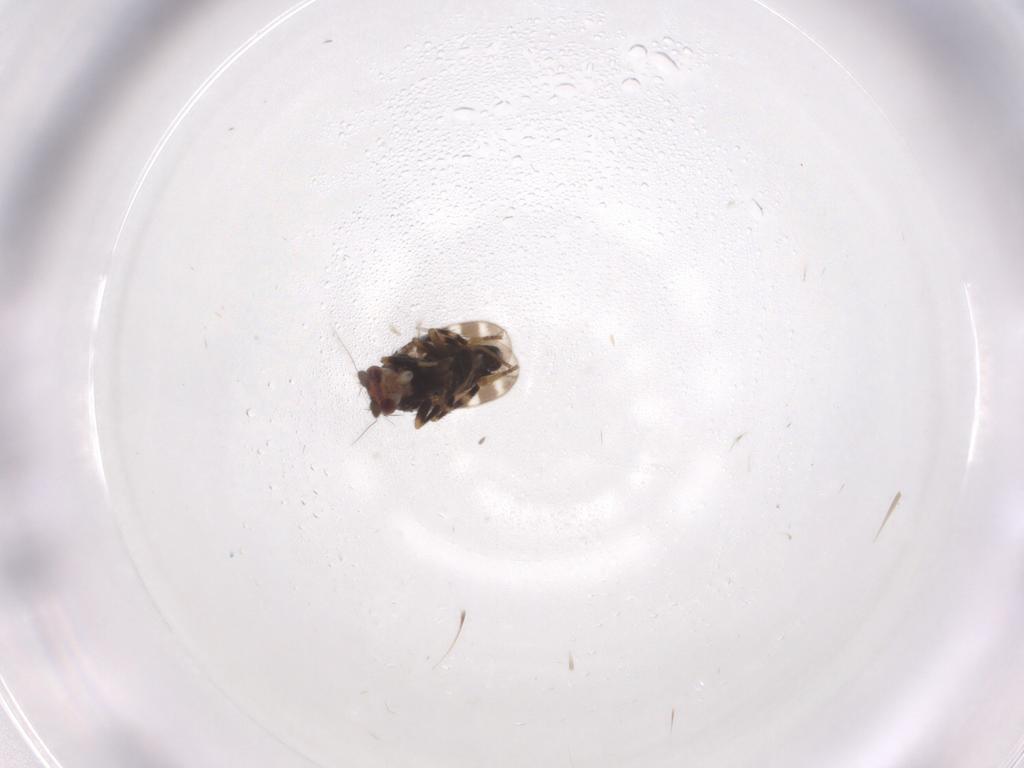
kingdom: Animalia
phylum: Arthropoda
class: Insecta
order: Diptera
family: Sphaeroceridae
